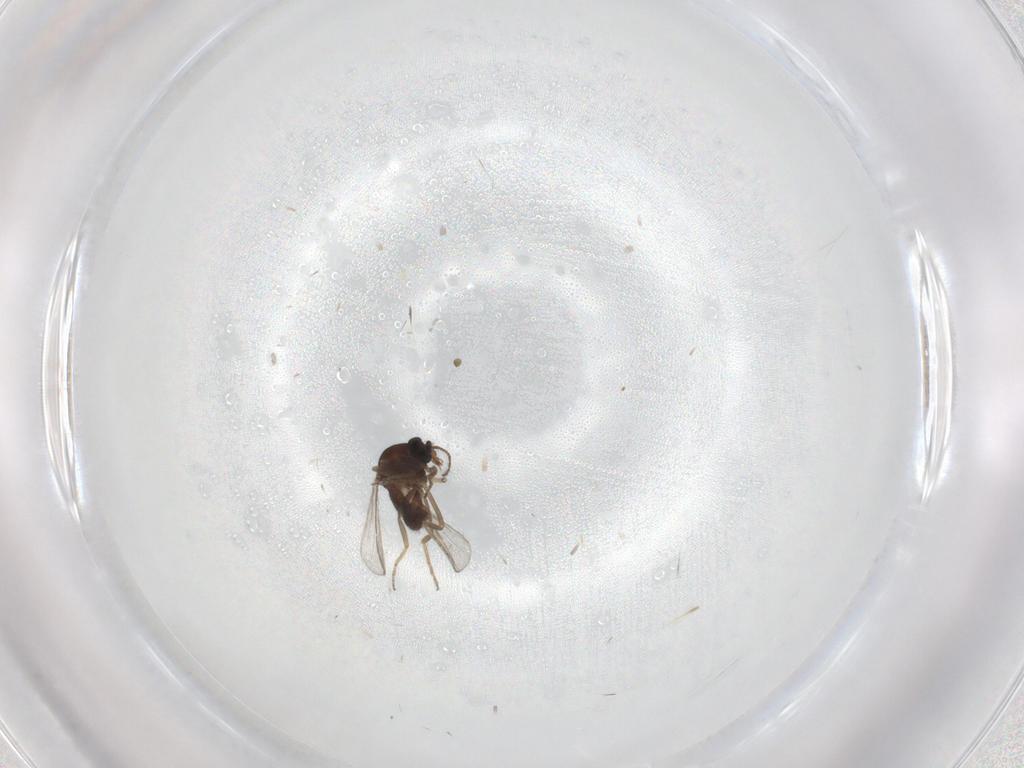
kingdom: Animalia
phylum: Arthropoda
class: Insecta
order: Diptera
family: Ceratopogonidae
